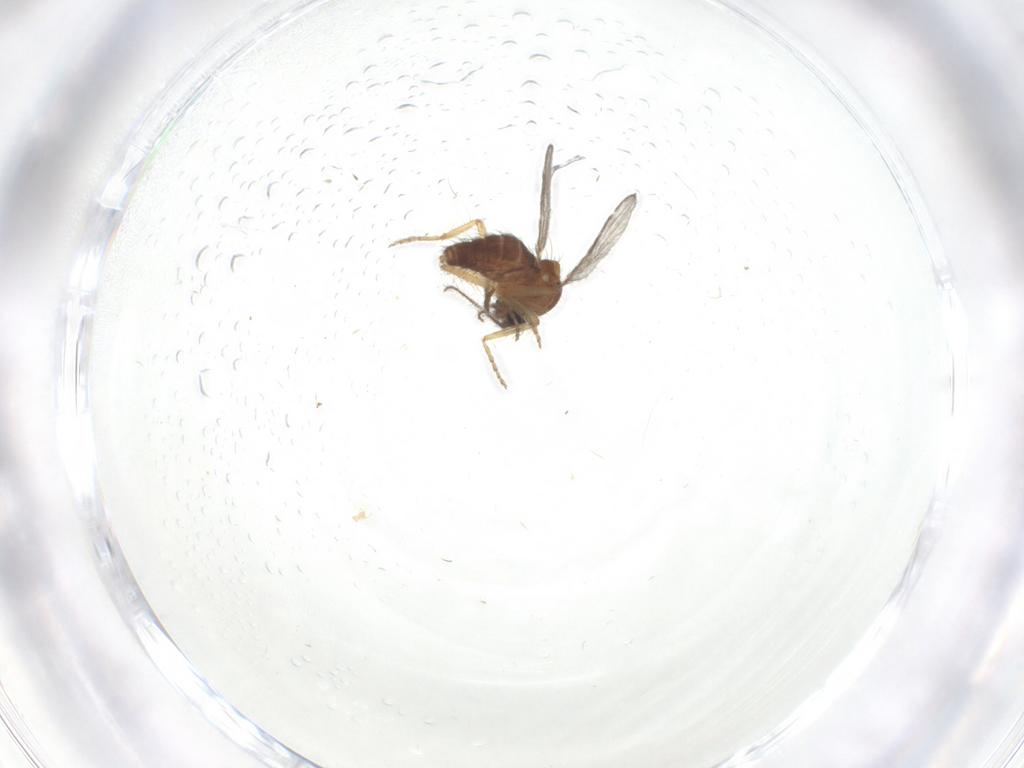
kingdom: Animalia
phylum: Arthropoda
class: Insecta
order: Diptera
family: Ceratopogonidae
